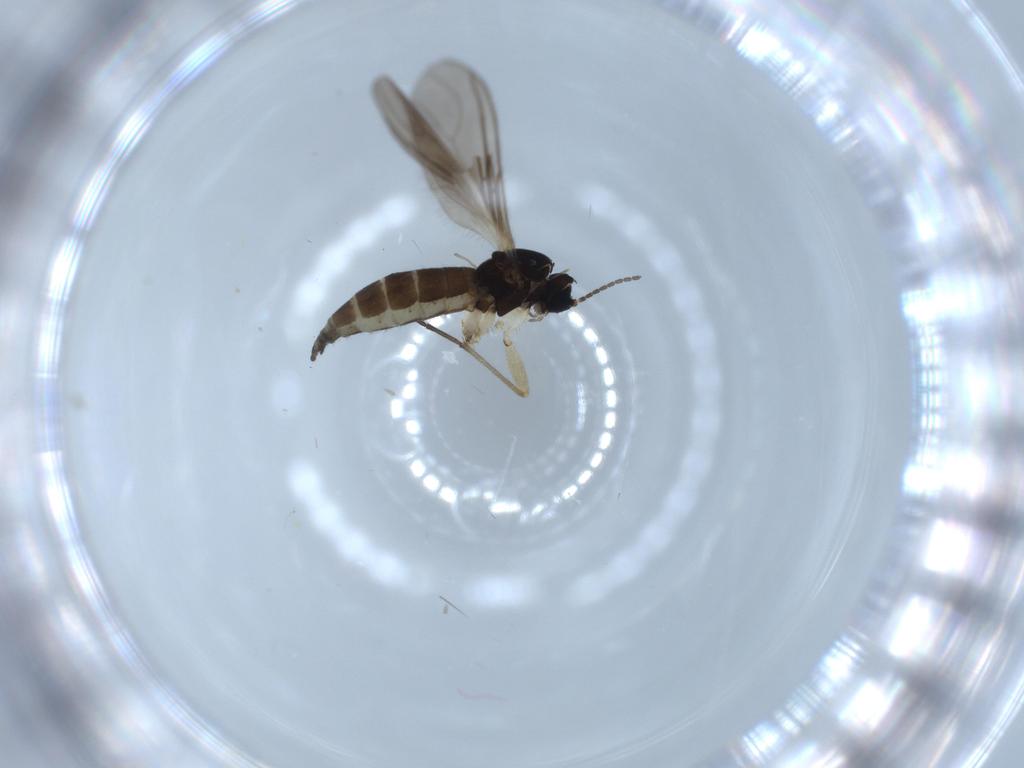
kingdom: Animalia
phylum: Arthropoda
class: Insecta
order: Diptera
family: Sciaridae
